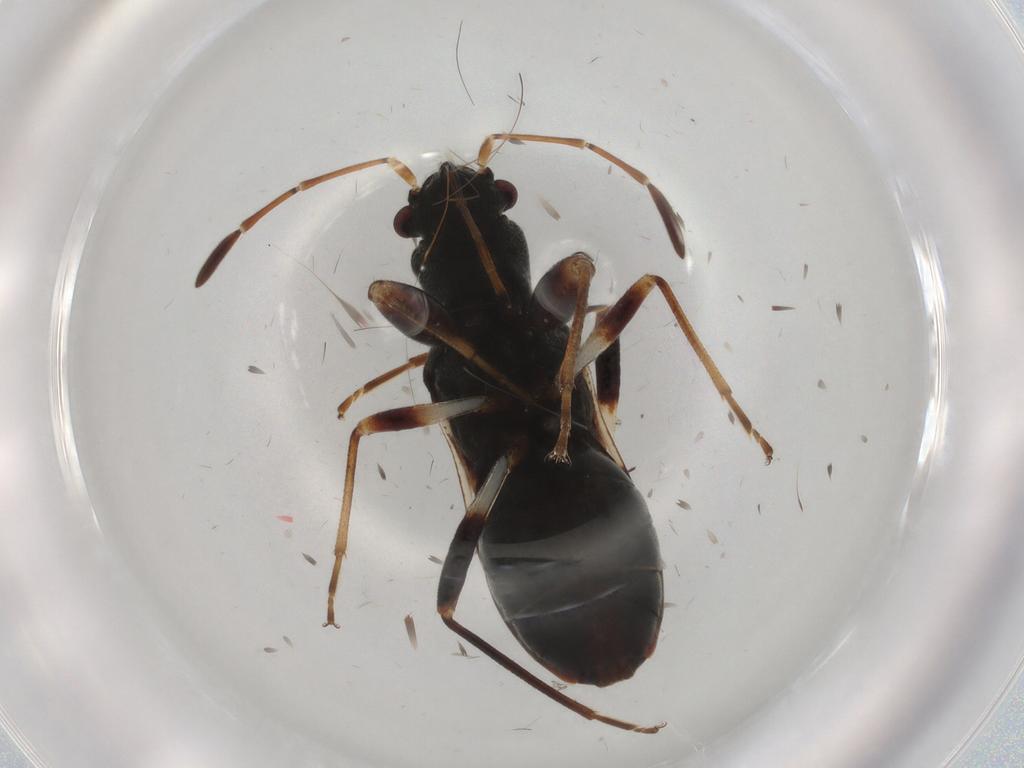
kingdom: Animalia
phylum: Arthropoda
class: Insecta
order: Hemiptera
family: Rhyparochromidae
